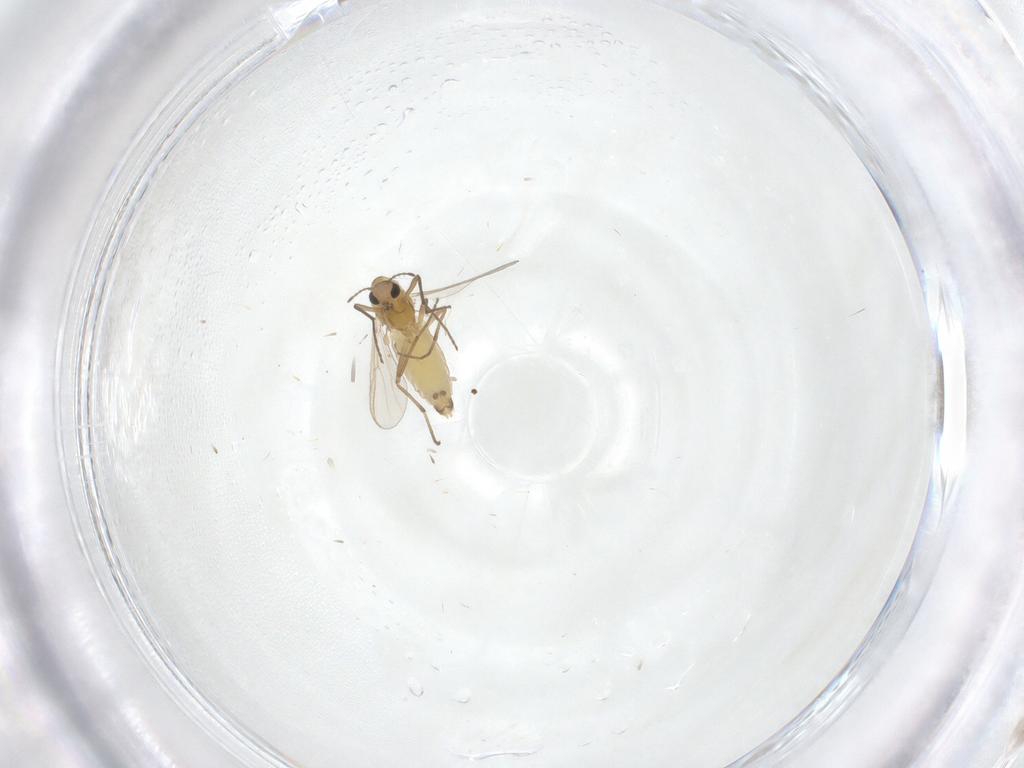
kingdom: Animalia
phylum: Arthropoda
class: Insecta
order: Diptera
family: Chironomidae
